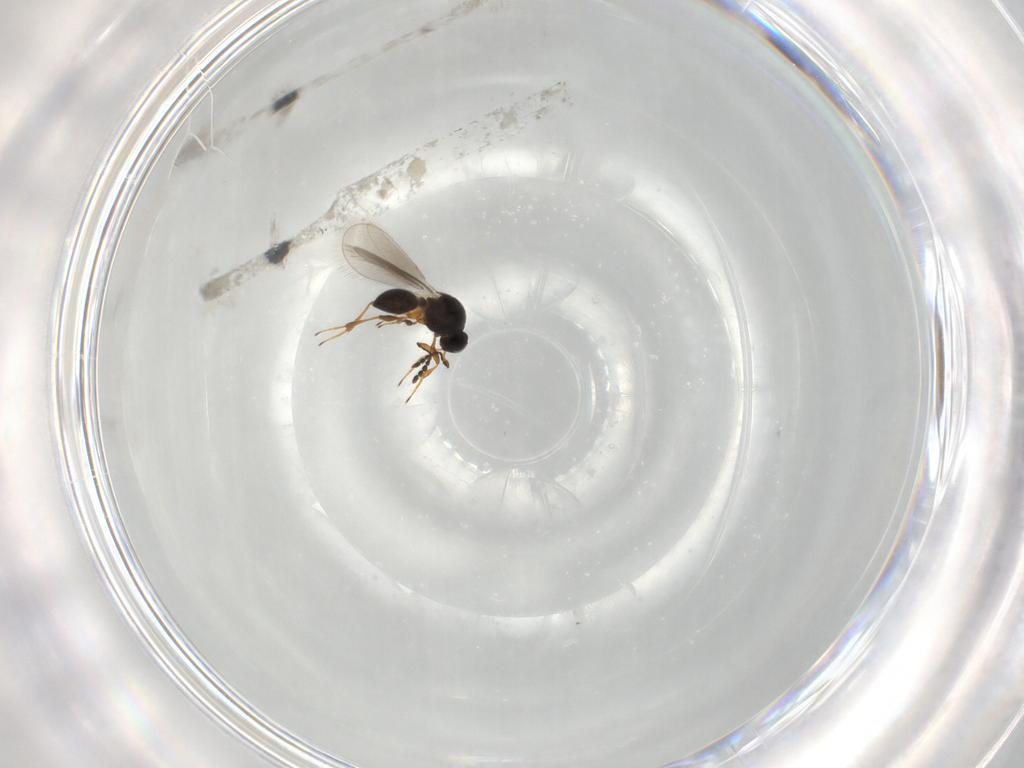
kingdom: Animalia
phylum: Arthropoda
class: Insecta
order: Hymenoptera
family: Platygastridae
